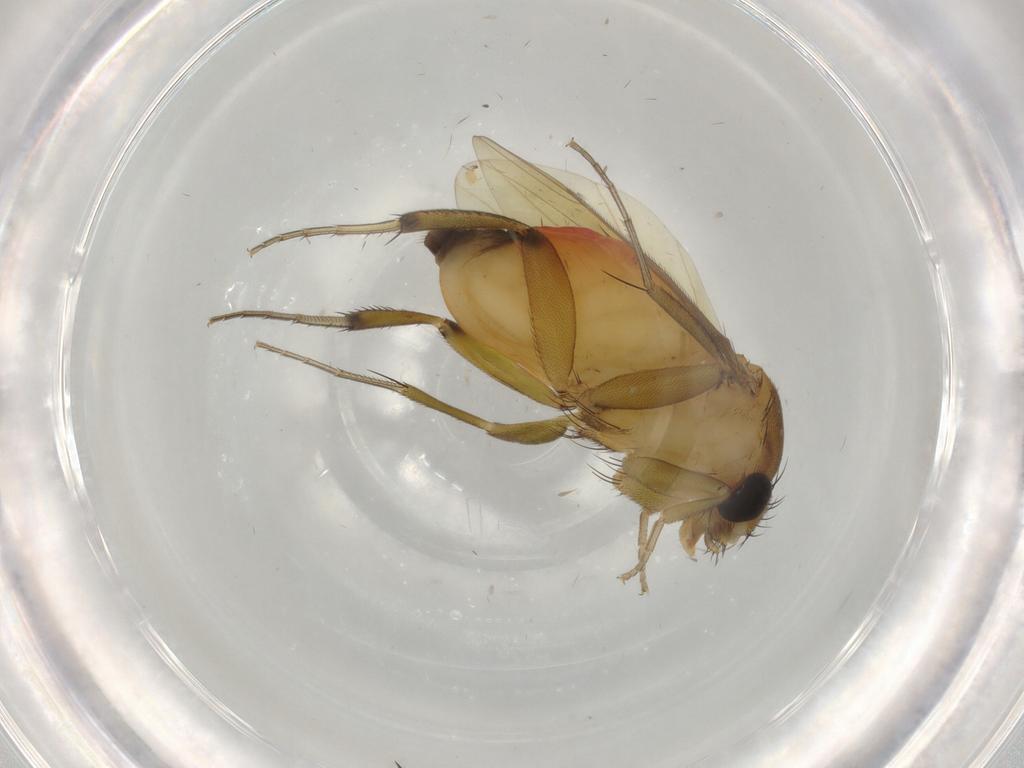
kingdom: Animalia
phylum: Arthropoda
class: Insecta
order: Diptera
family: Phoridae
